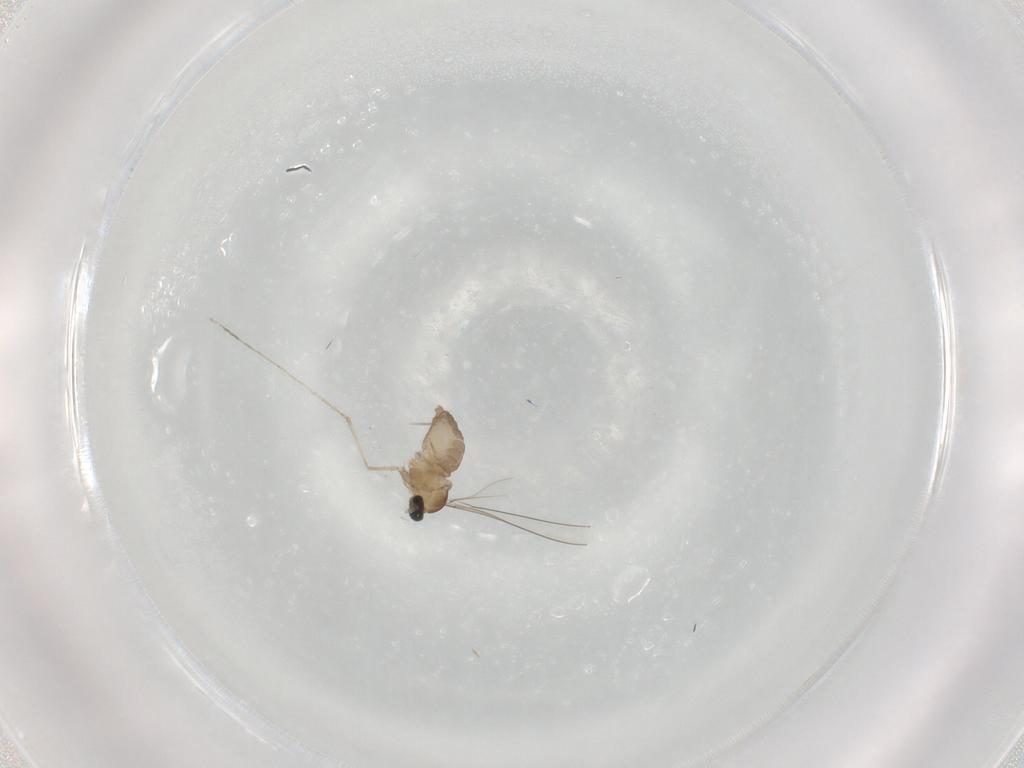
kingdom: Animalia
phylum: Arthropoda
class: Insecta
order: Diptera
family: Cecidomyiidae
